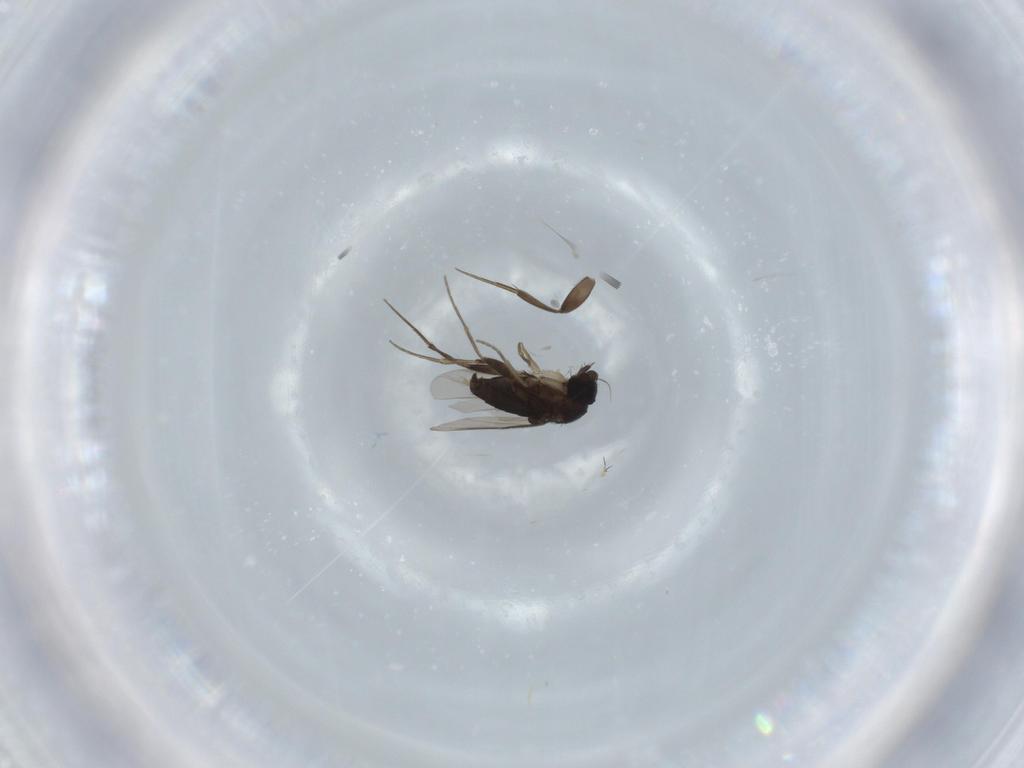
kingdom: Animalia
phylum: Arthropoda
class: Insecta
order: Diptera
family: Phoridae
